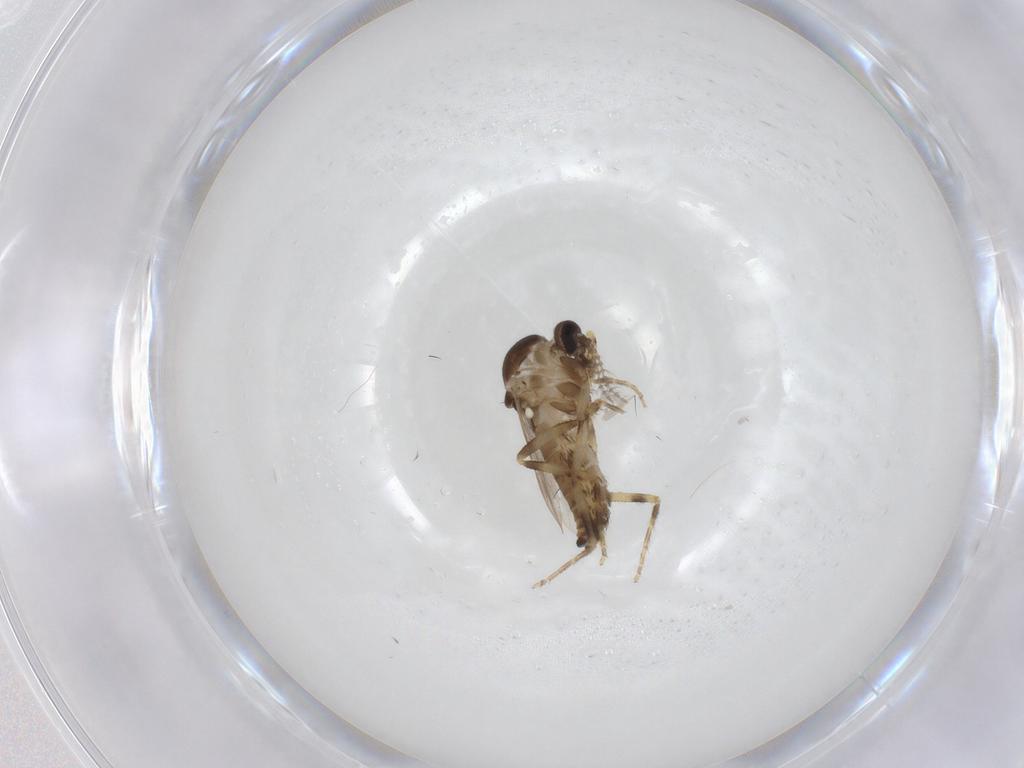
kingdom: Animalia
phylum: Arthropoda
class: Insecta
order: Diptera
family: Ceratopogonidae
